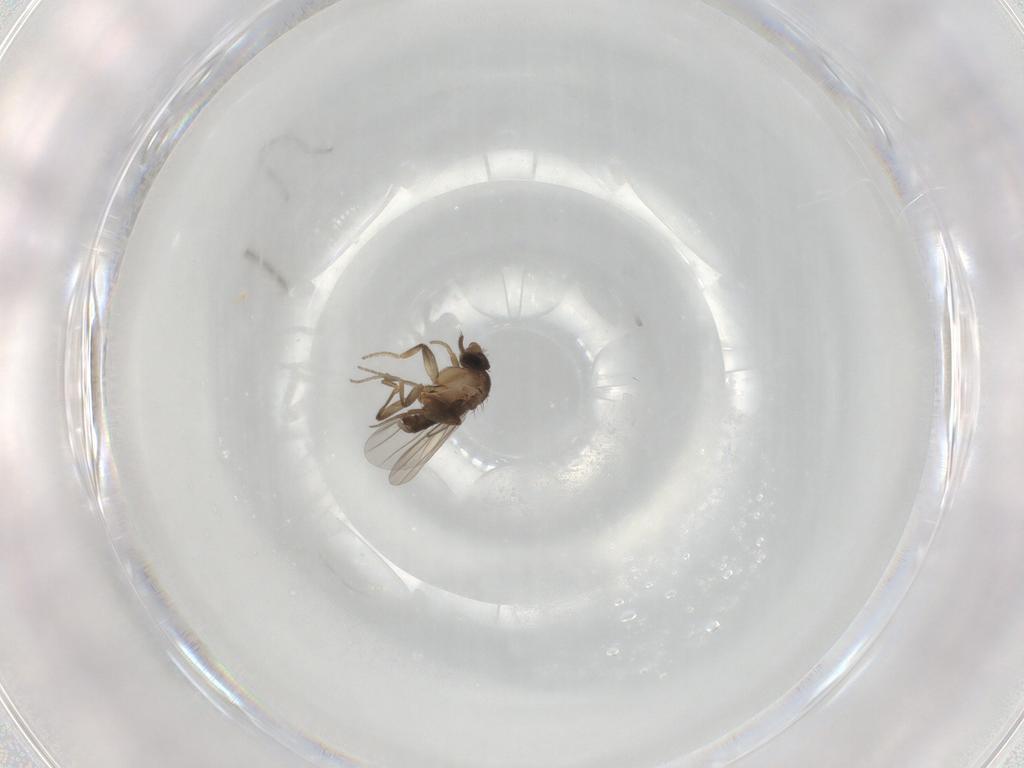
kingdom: Animalia
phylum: Arthropoda
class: Insecta
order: Diptera
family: Phoridae
